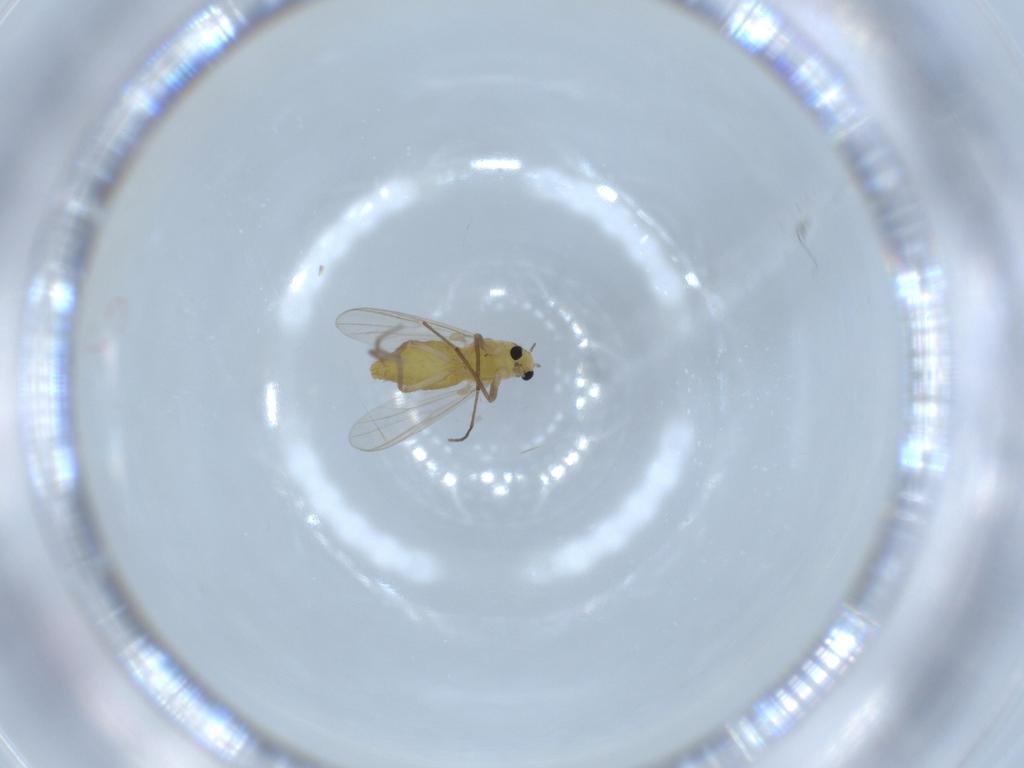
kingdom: Animalia
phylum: Arthropoda
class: Insecta
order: Diptera
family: Chironomidae
